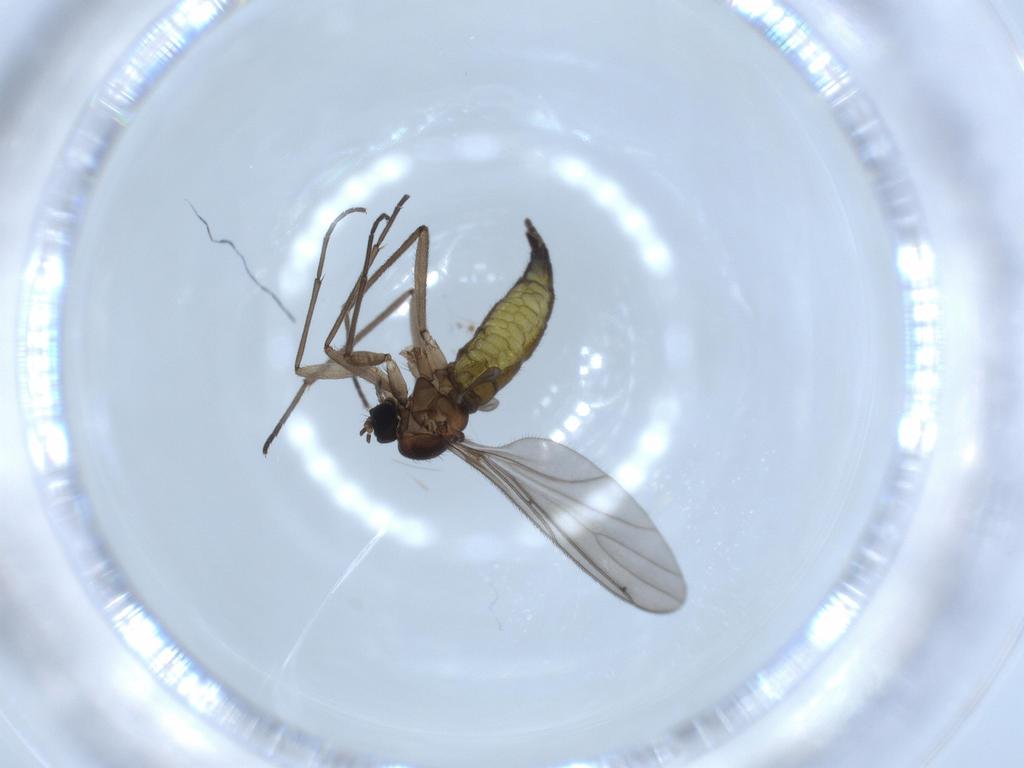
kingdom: Animalia
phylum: Arthropoda
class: Insecta
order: Diptera
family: Sciaridae
